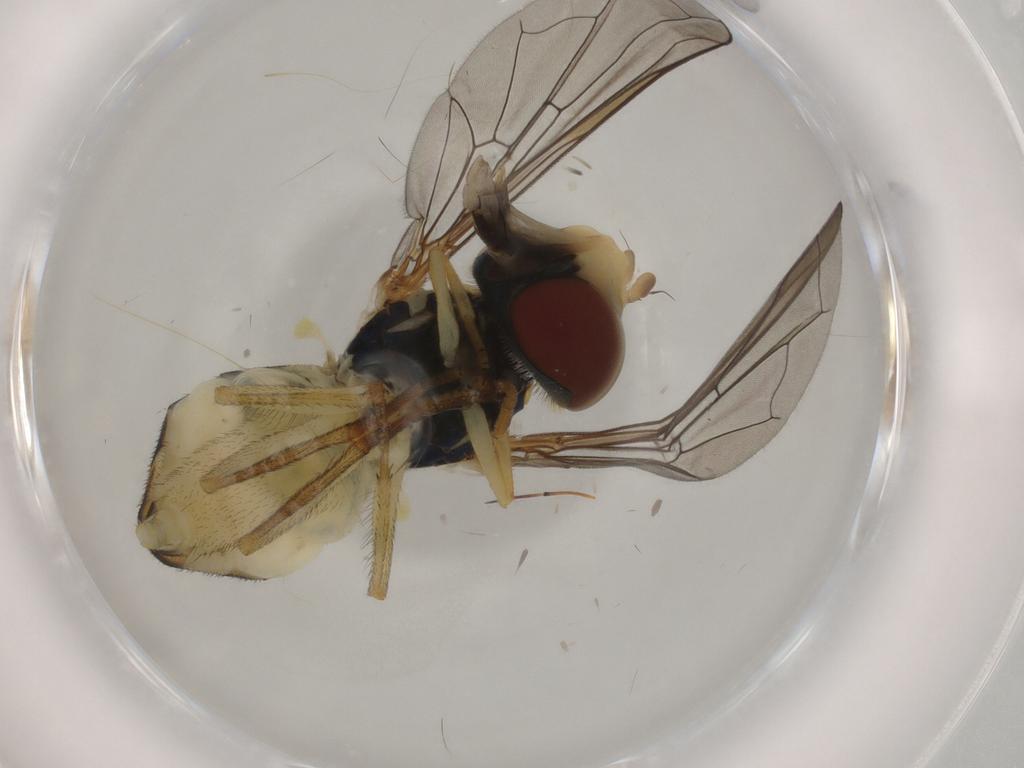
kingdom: Animalia
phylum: Arthropoda
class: Insecta
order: Diptera
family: Syrphidae
